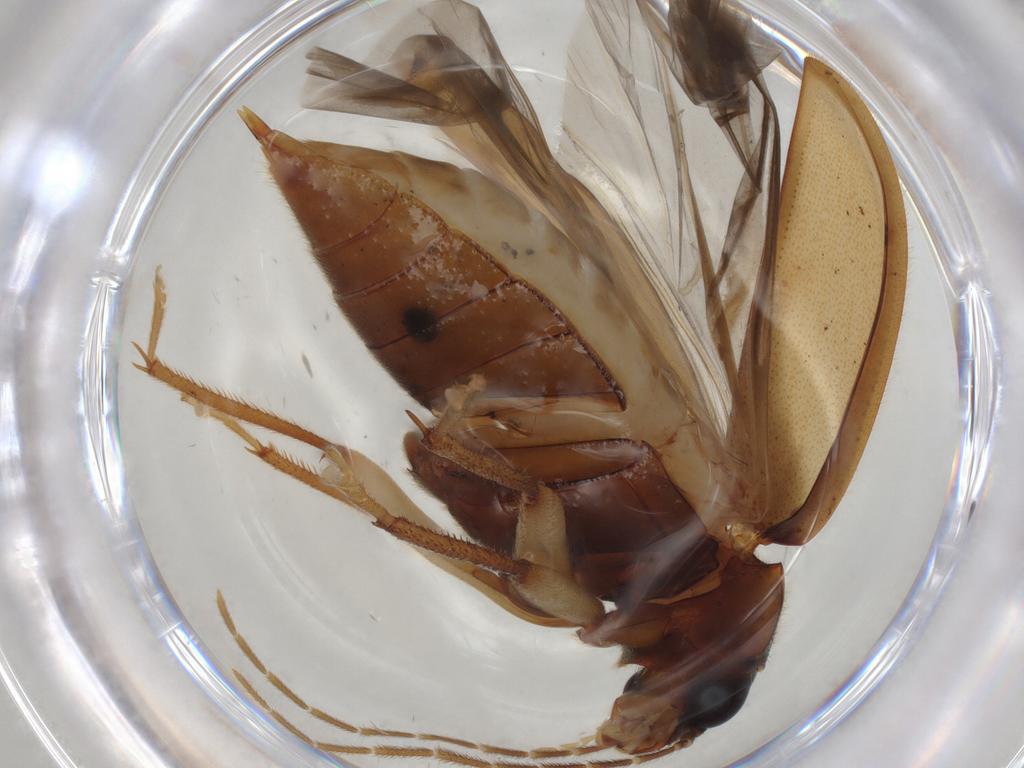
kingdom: Animalia
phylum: Arthropoda
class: Insecta
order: Coleoptera
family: Ptilodactylidae
